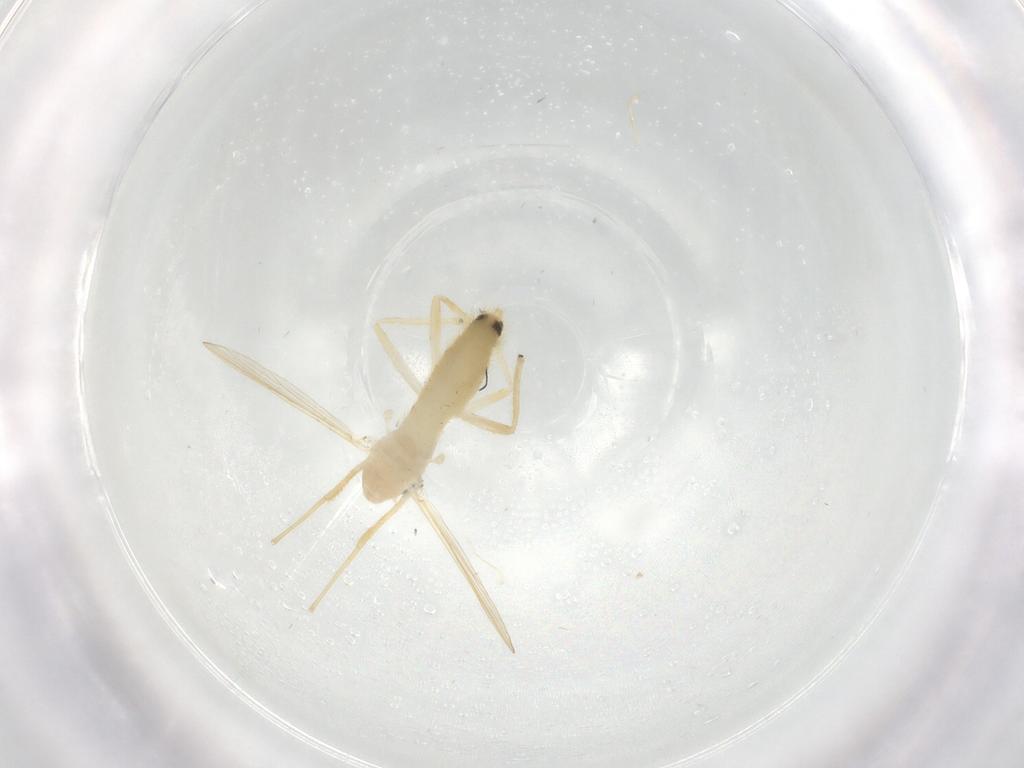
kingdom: Animalia
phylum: Arthropoda
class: Insecta
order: Diptera
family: Chironomidae
